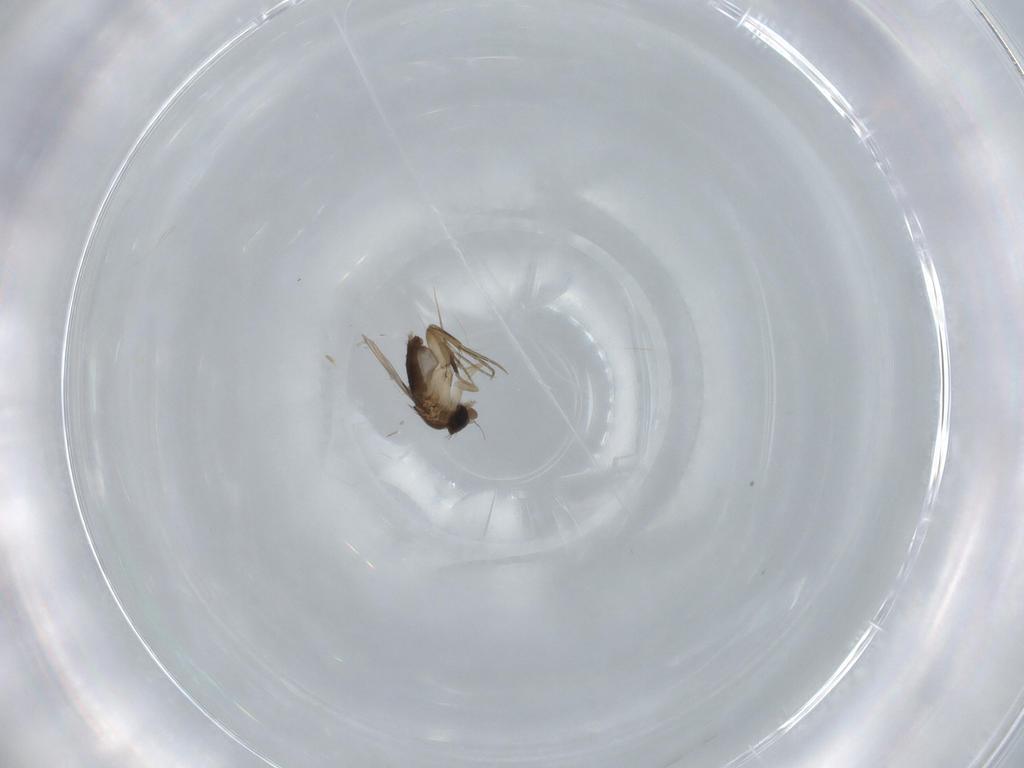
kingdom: Animalia
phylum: Arthropoda
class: Insecta
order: Diptera
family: Phoridae
